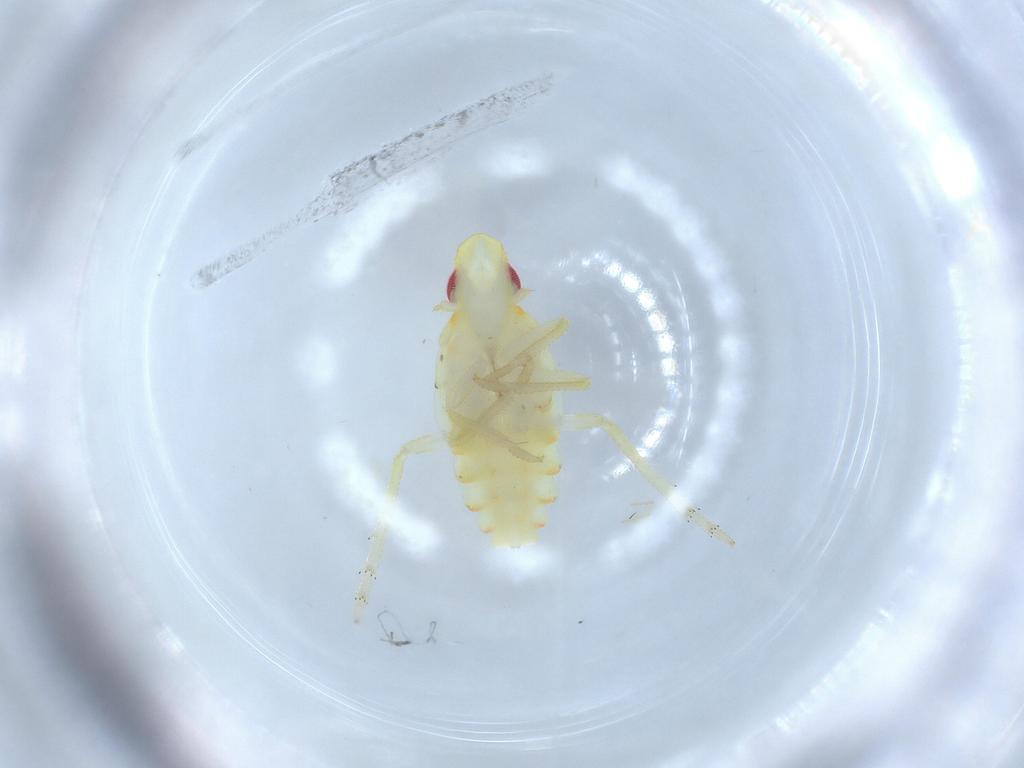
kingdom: Animalia
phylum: Arthropoda
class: Insecta
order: Hemiptera
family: Tropiduchidae
